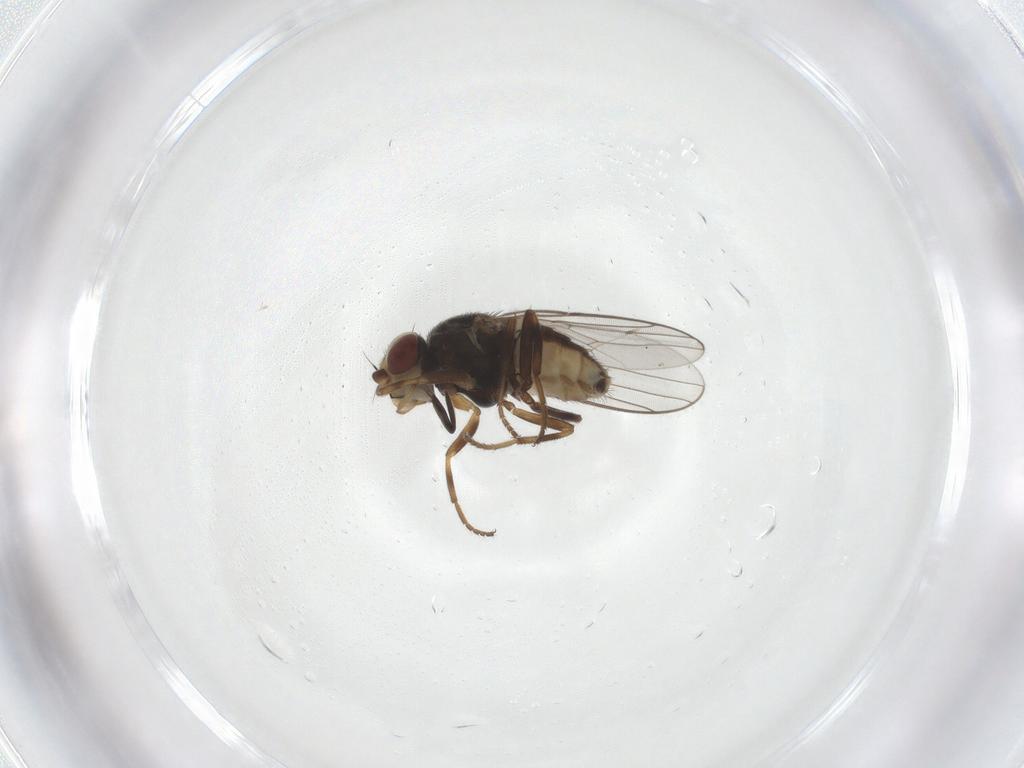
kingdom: Animalia
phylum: Arthropoda
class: Insecta
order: Diptera
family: Chloropidae
